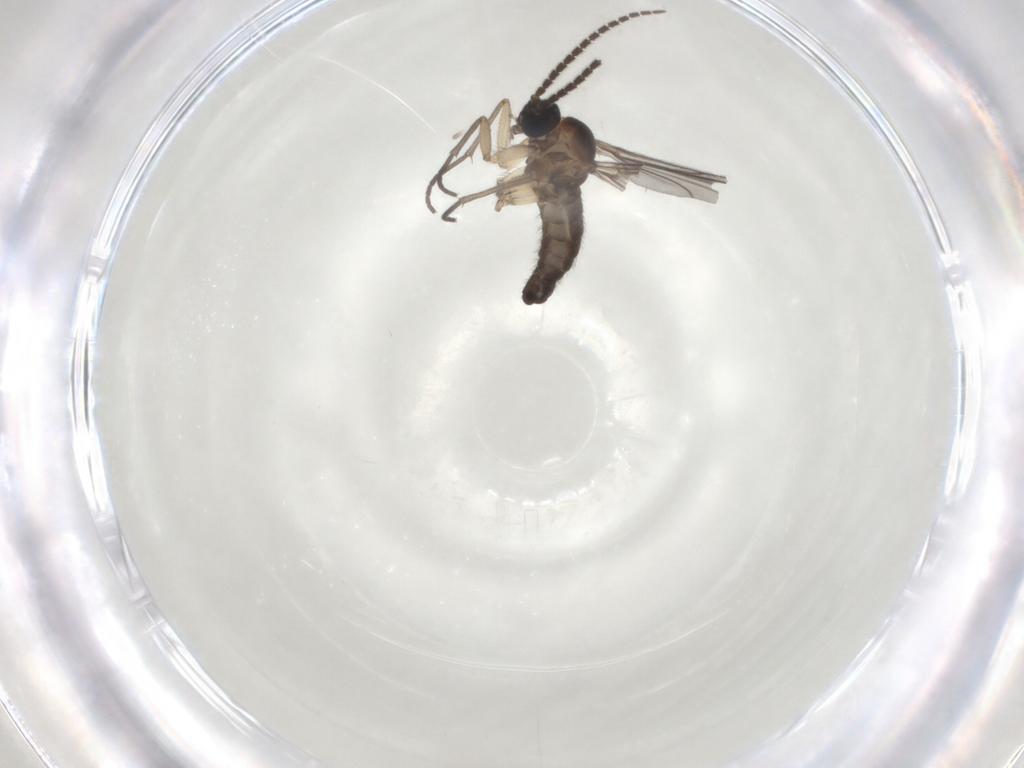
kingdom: Animalia
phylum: Arthropoda
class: Insecta
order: Diptera
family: Sciaridae
